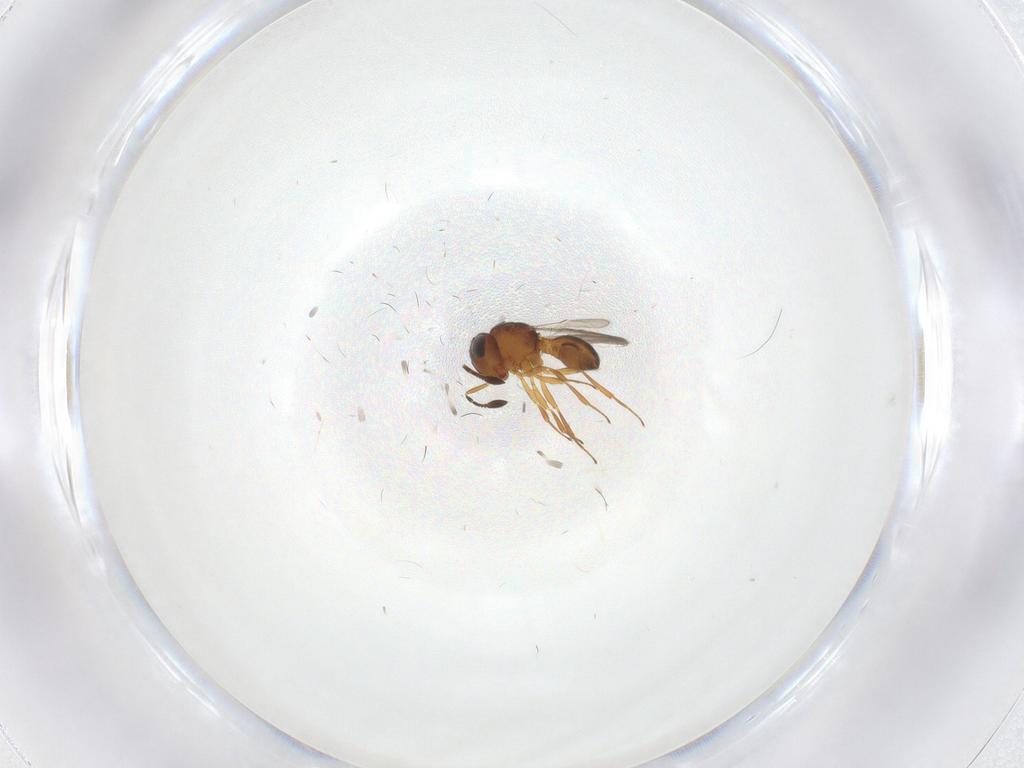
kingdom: Animalia
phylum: Arthropoda
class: Insecta
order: Hymenoptera
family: Scelionidae
